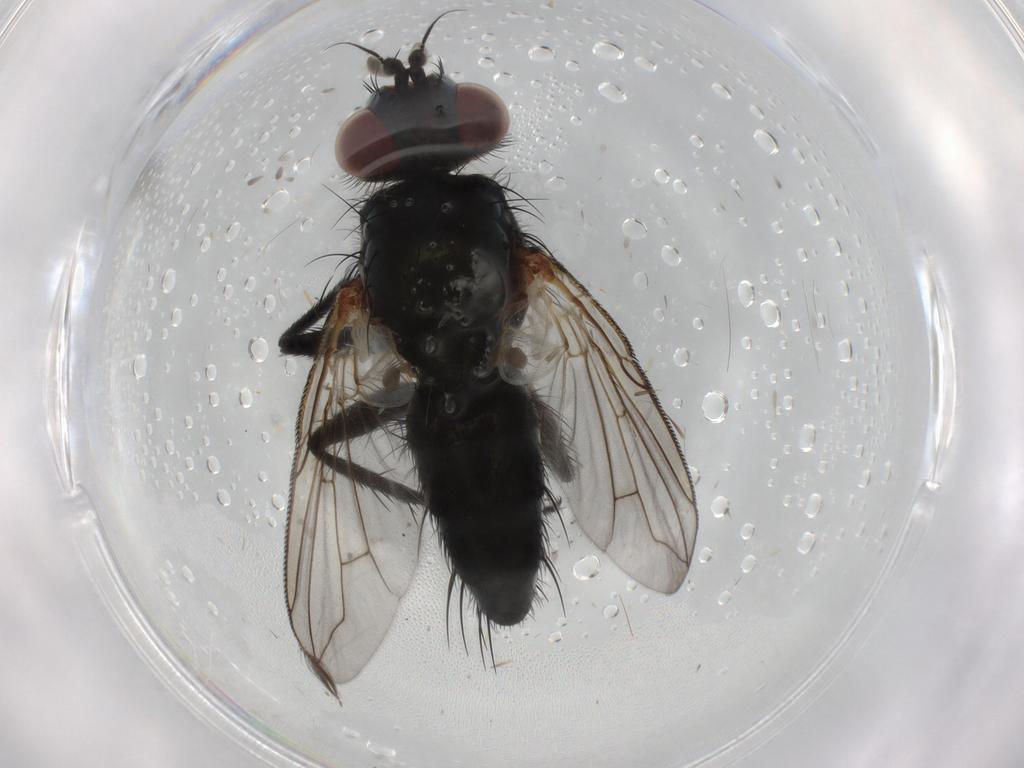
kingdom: Animalia
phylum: Arthropoda
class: Insecta
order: Diptera
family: Tachinidae
